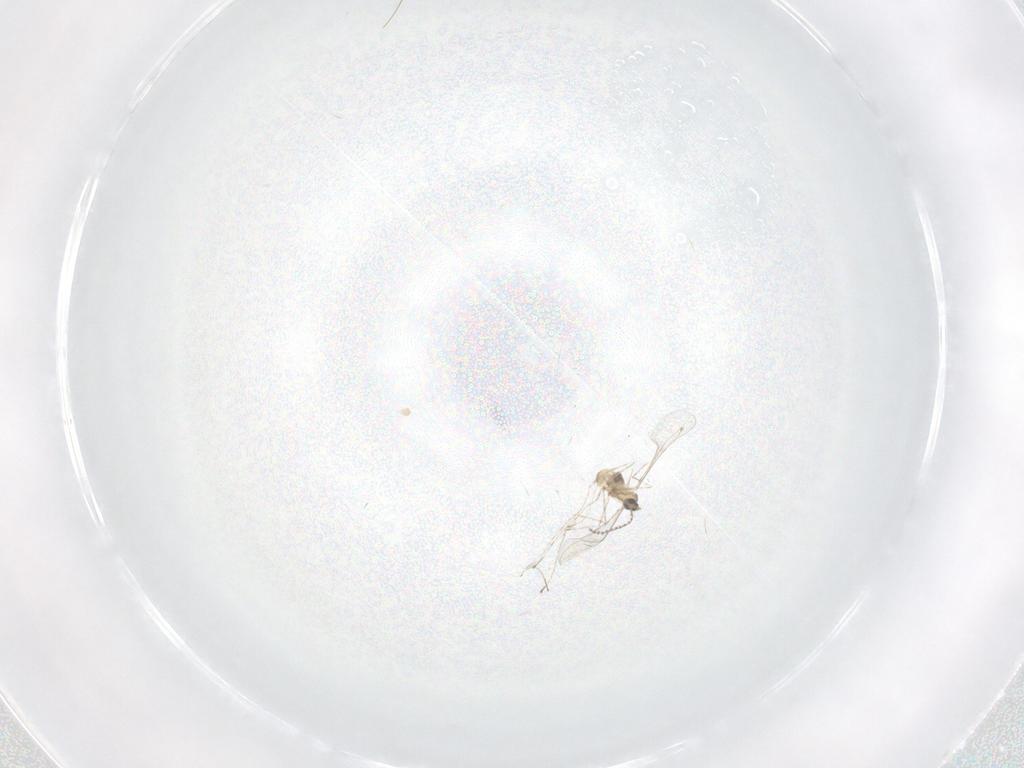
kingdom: Animalia
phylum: Arthropoda
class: Insecta
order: Diptera
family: Cecidomyiidae
